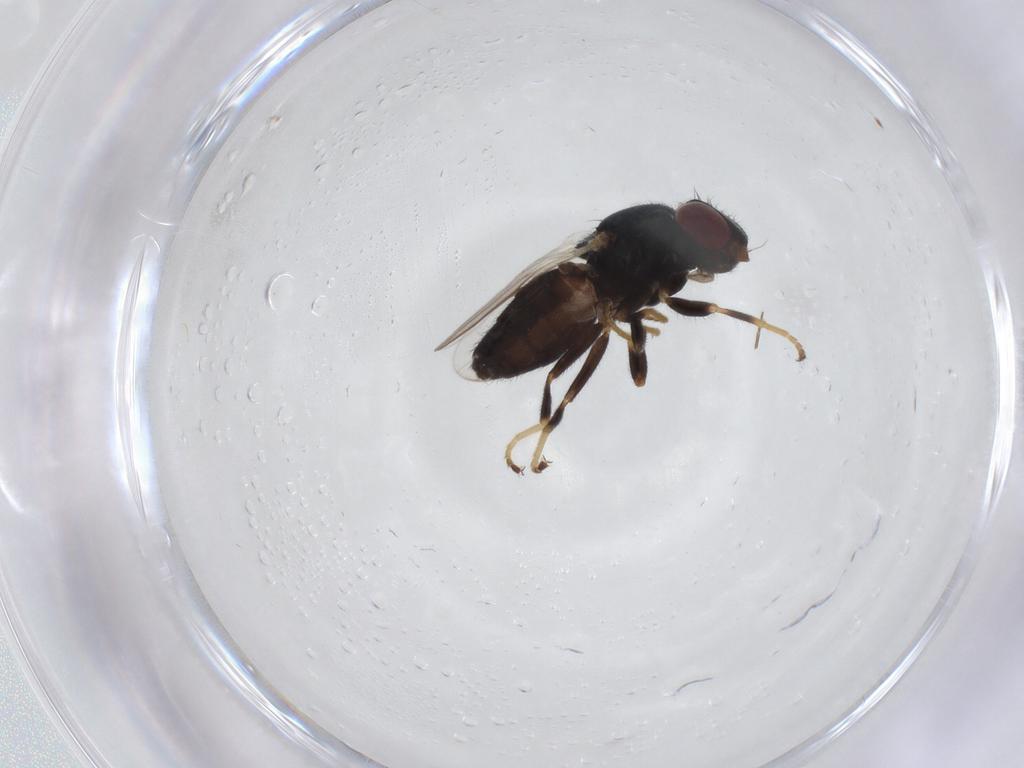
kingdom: Animalia
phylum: Arthropoda
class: Insecta
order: Diptera
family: Chloropidae
